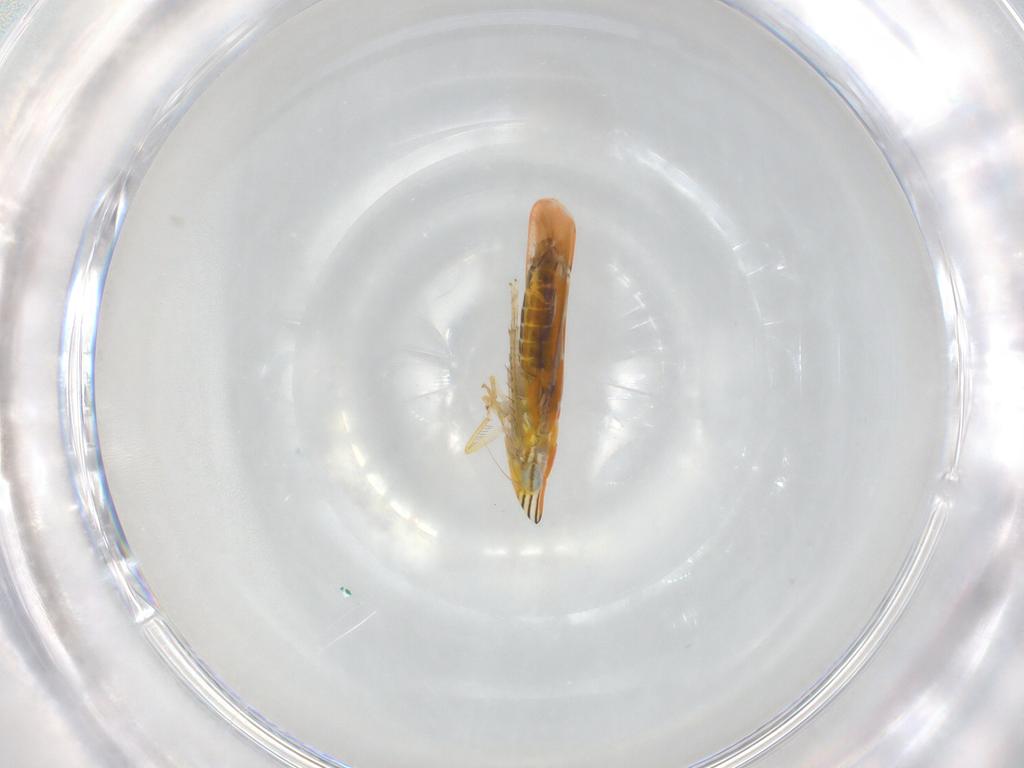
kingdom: Animalia
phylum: Arthropoda
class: Insecta
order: Hemiptera
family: Cicadellidae
